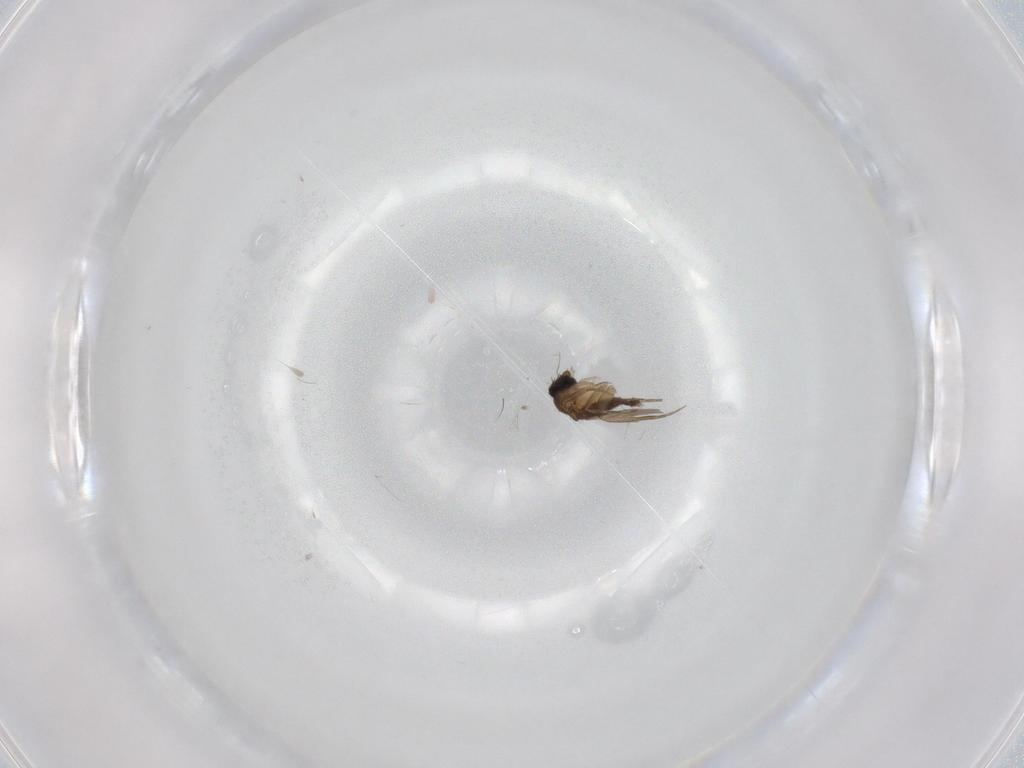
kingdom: Animalia
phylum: Arthropoda
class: Insecta
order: Diptera
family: Phoridae
